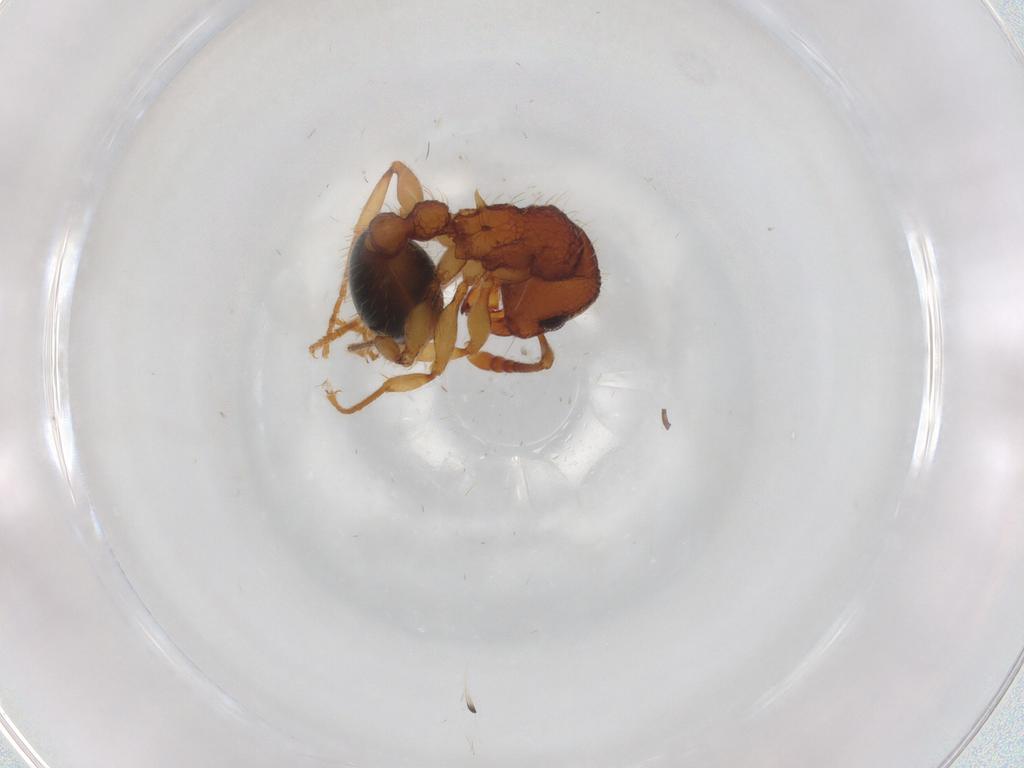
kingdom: Animalia
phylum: Arthropoda
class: Insecta
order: Hymenoptera
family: Formicidae
